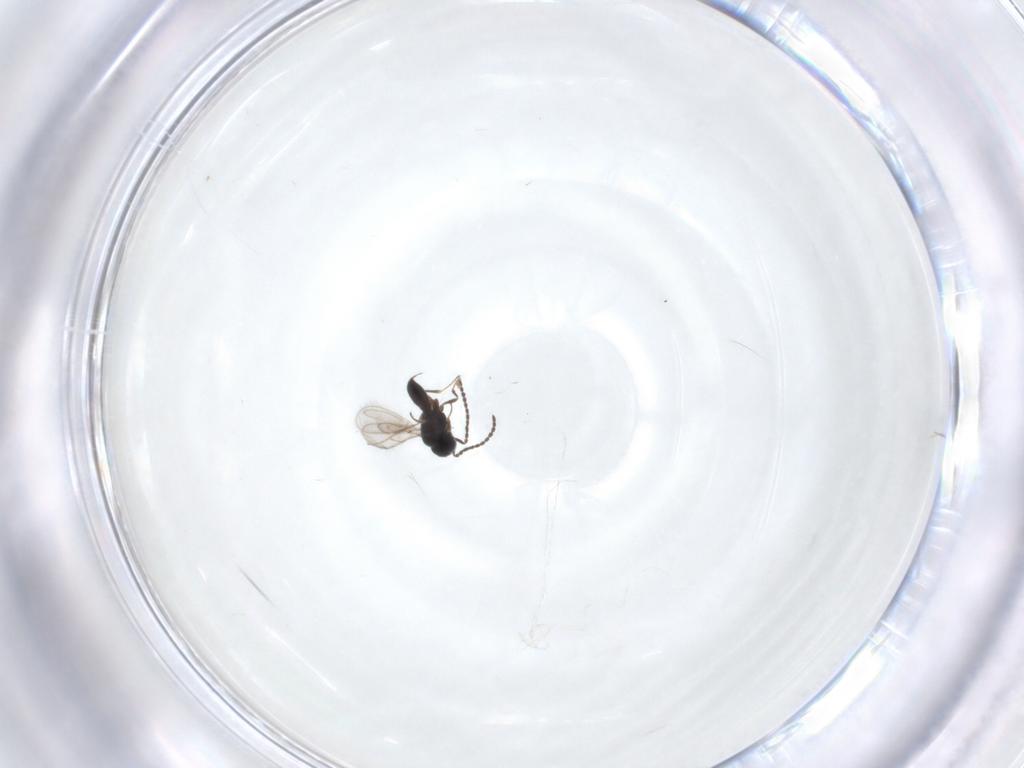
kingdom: Animalia
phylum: Arthropoda
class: Insecta
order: Hymenoptera
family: Scelionidae
